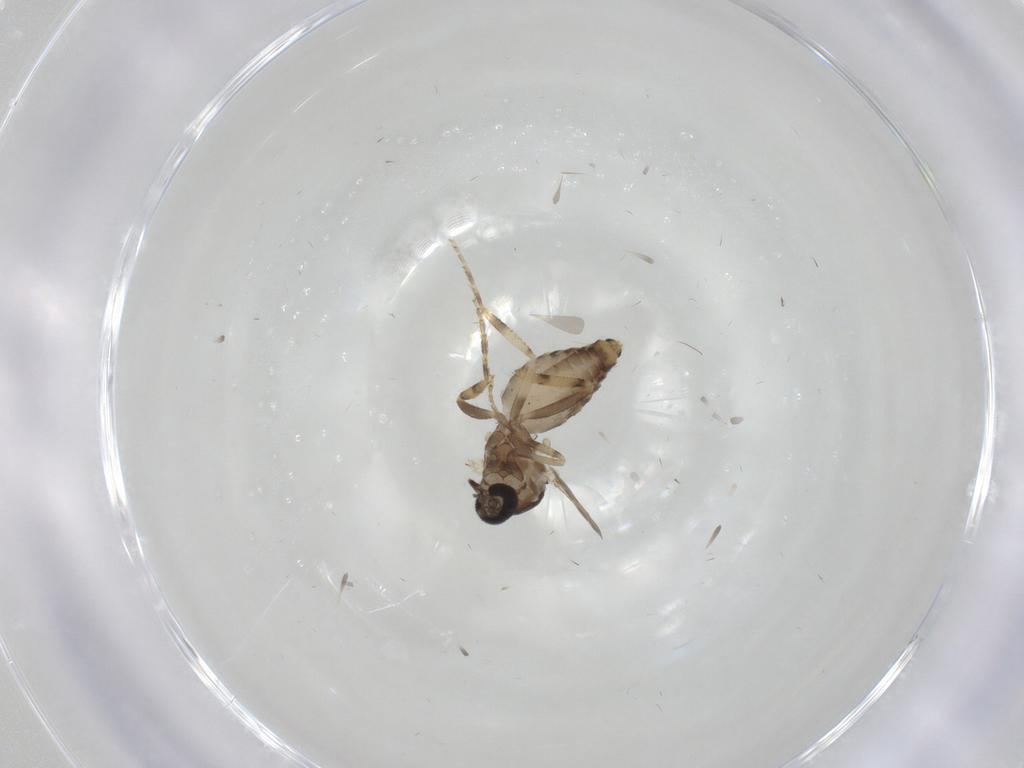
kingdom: Animalia
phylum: Arthropoda
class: Insecta
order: Diptera
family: Ceratopogonidae
